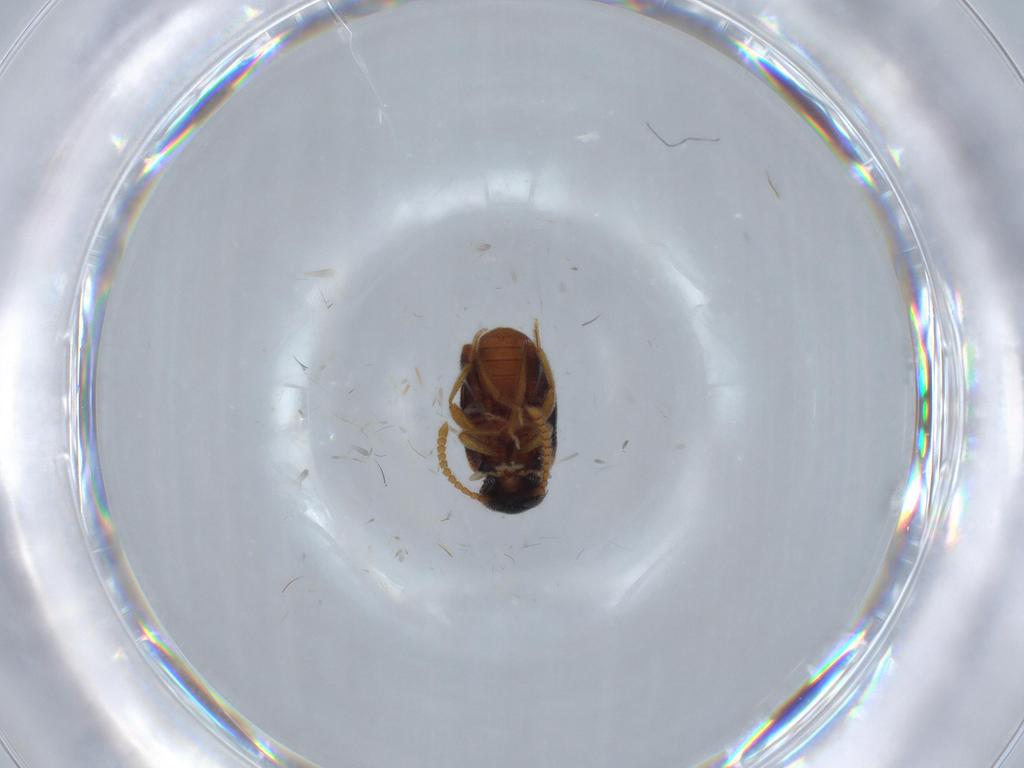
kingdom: Animalia
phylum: Arthropoda
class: Insecta
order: Coleoptera
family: Aderidae
